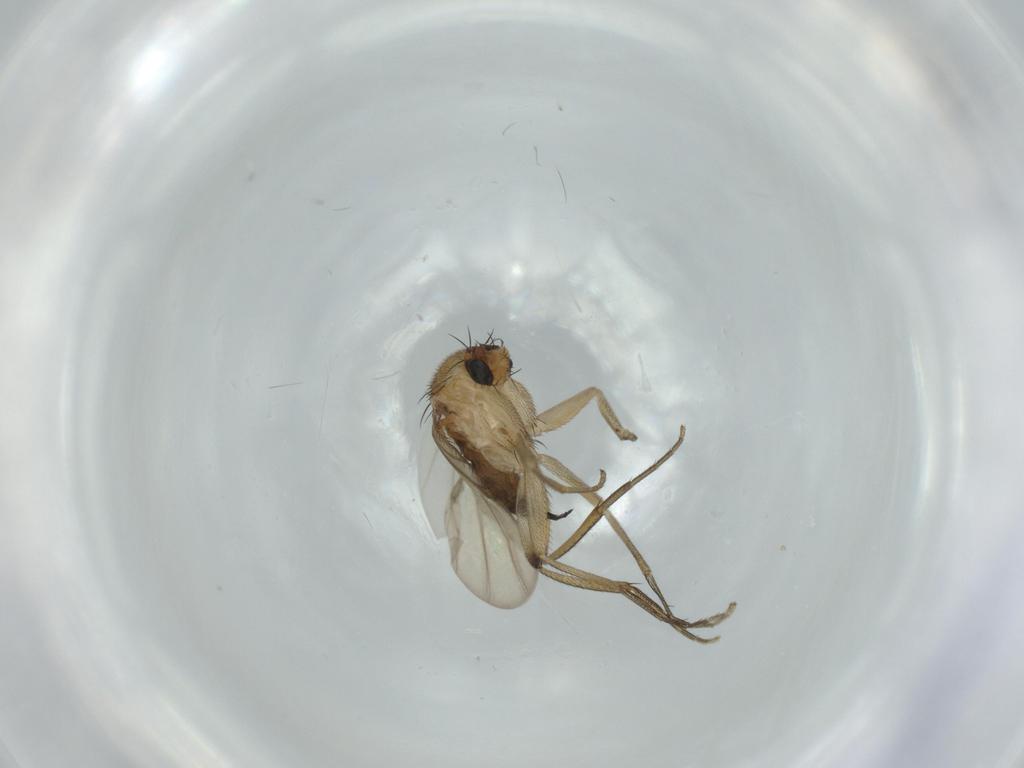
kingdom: Animalia
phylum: Arthropoda
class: Insecta
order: Diptera
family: Phoridae
